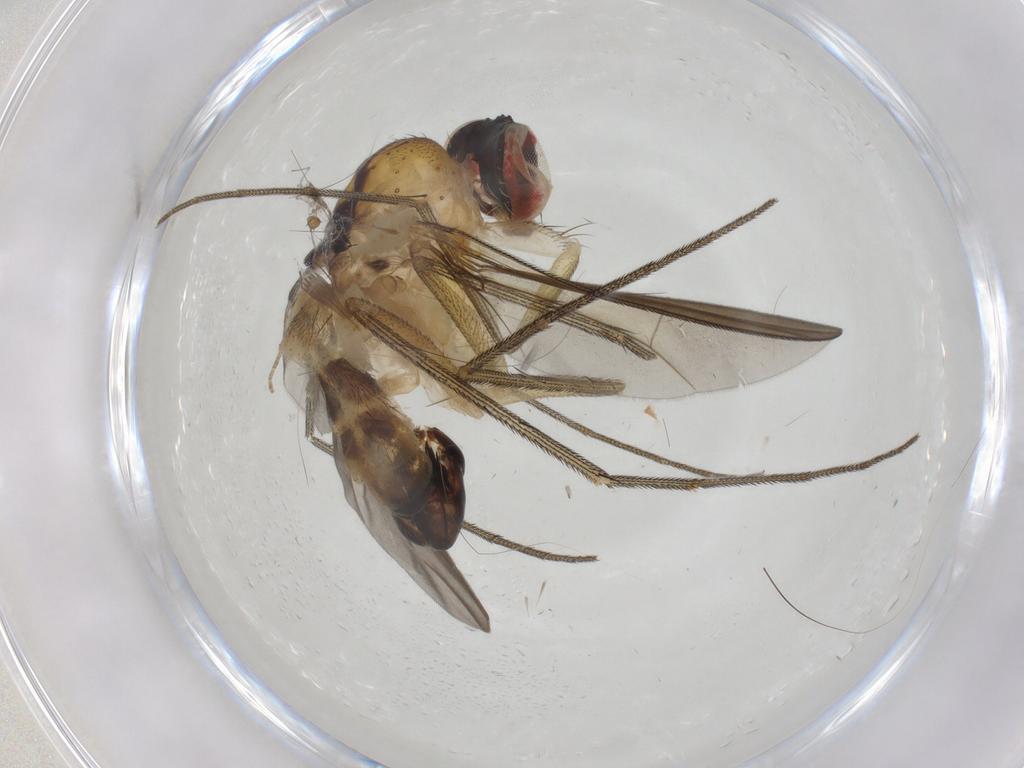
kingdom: Animalia
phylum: Arthropoda
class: Insecta
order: Diptera
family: Dolichopodidae
